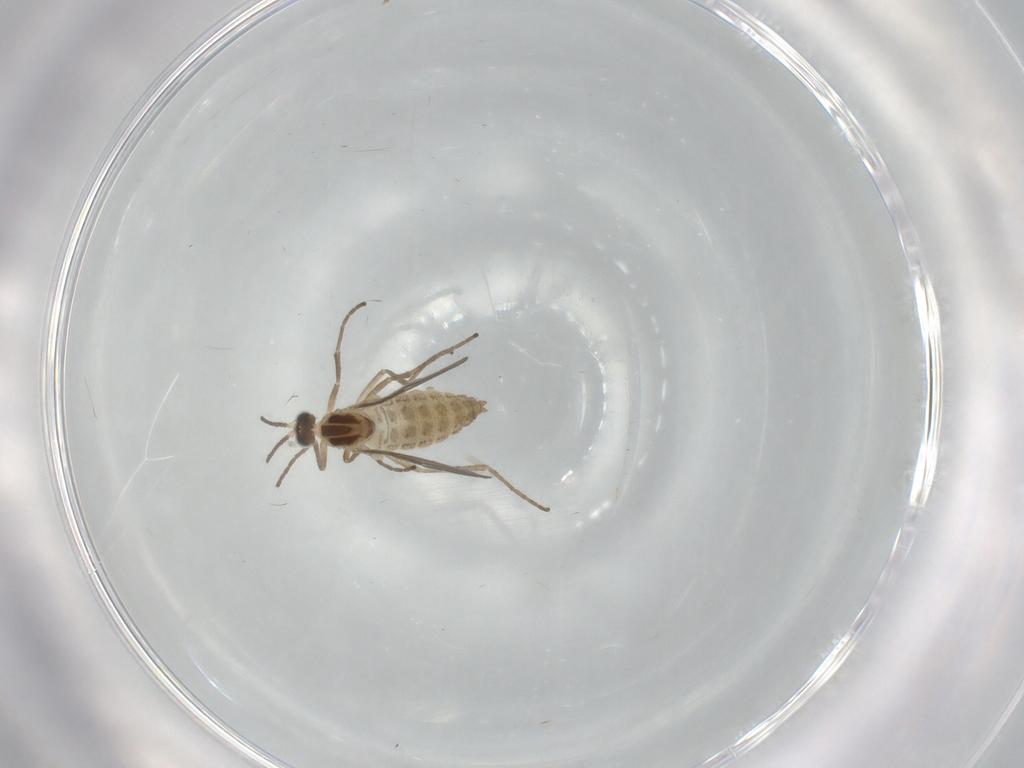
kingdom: Animalia
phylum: Arthropoda
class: Insecta
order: Diptera
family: Cecidomyiidae
